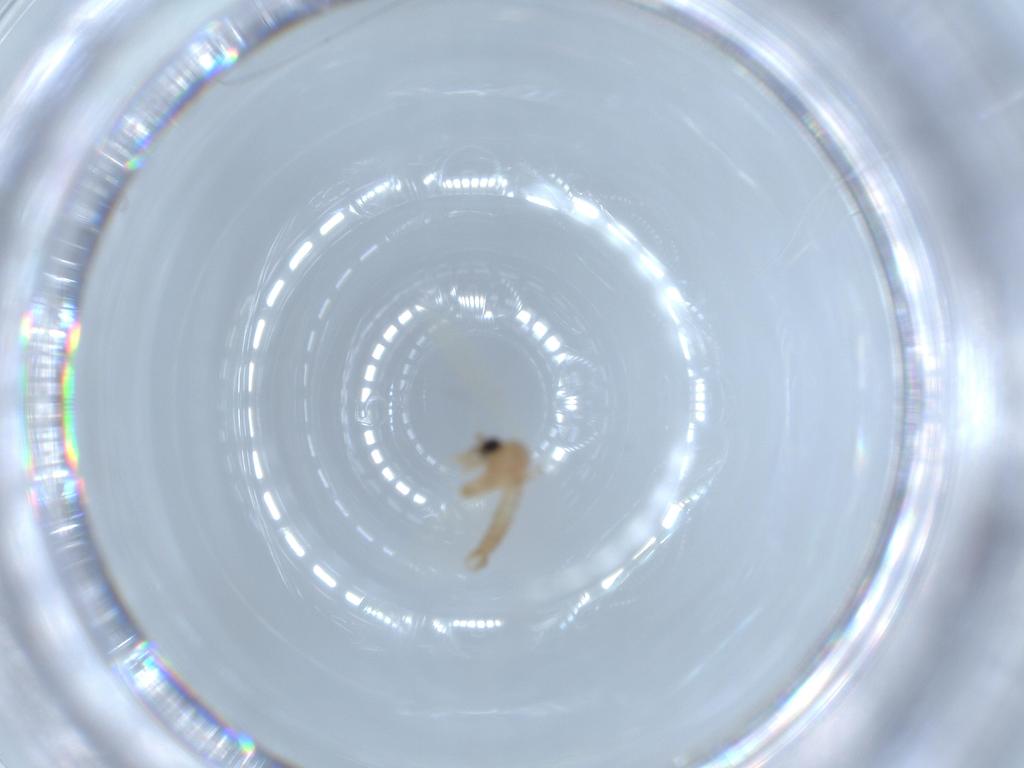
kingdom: Animalia
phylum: Arthropoda
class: Insecta
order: Diptera
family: Psychodidae
